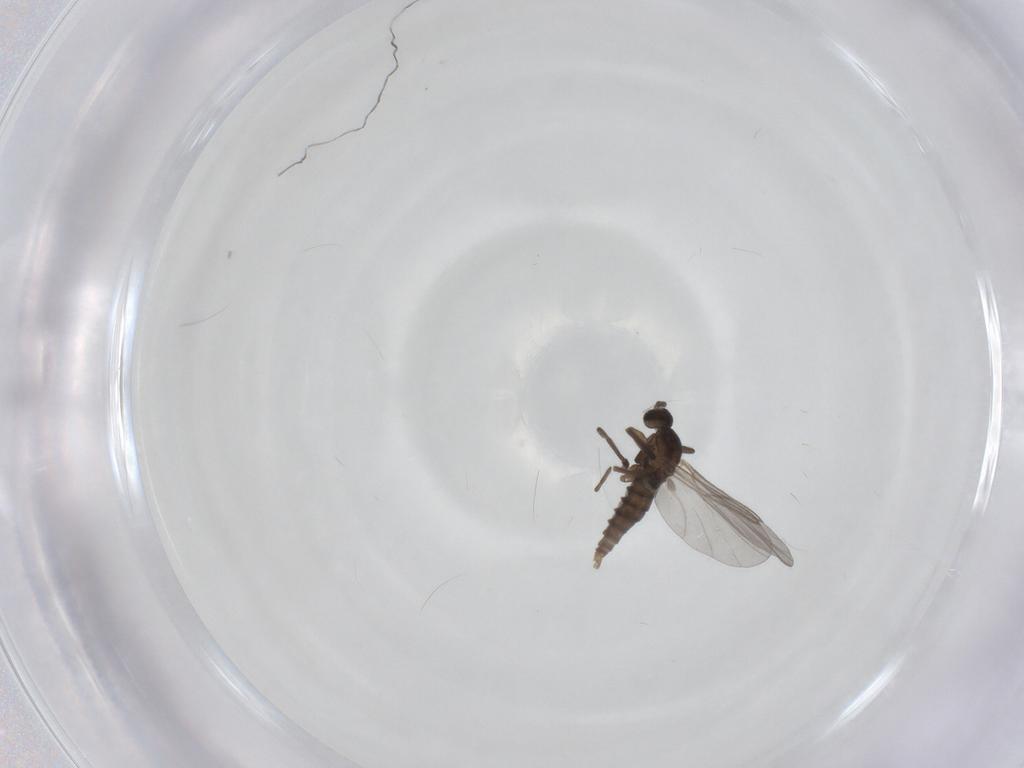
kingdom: Animalia
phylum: Arthropoda
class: Insecta
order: Diptera
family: Cecidomyiidae
